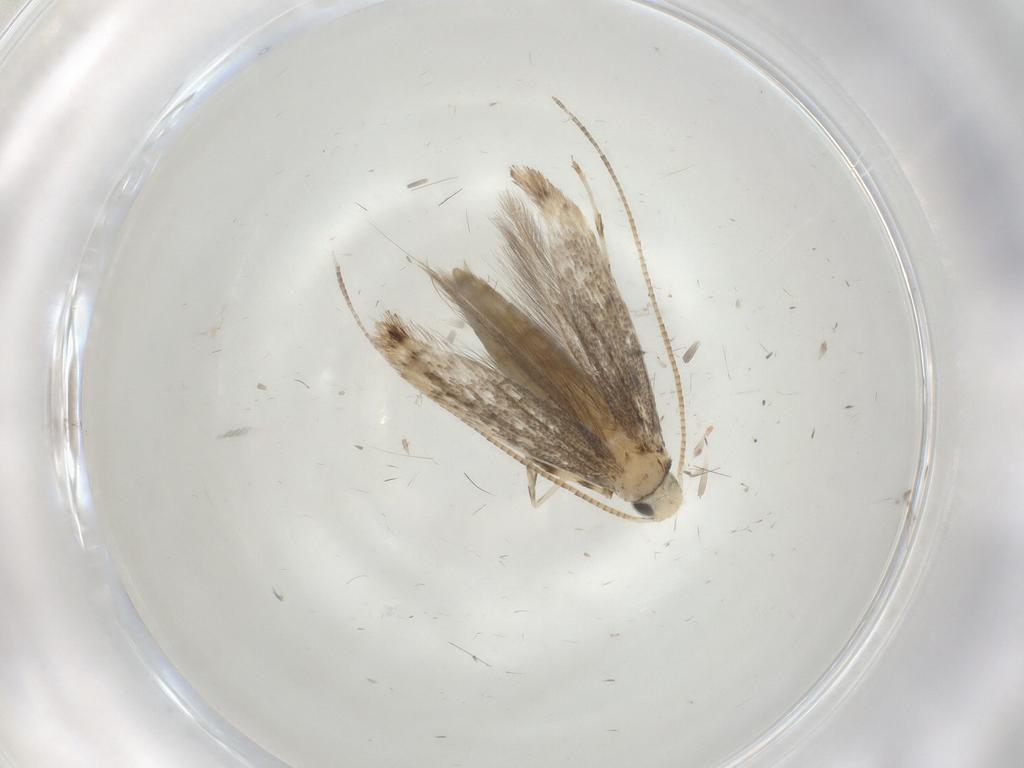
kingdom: Animalia
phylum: Arthropoda
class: Insecta
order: Lepidoptera
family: Gracillariidae
